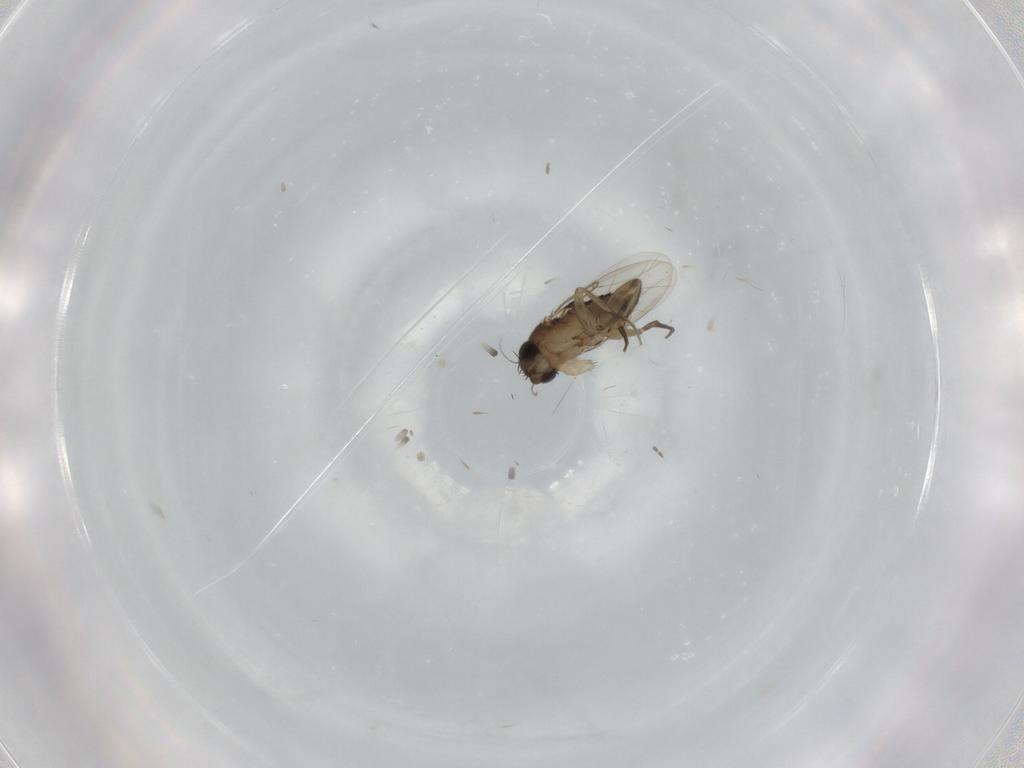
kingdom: Animalia
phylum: Arthropoda
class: Insecta
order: Diptera
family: Phoridae
